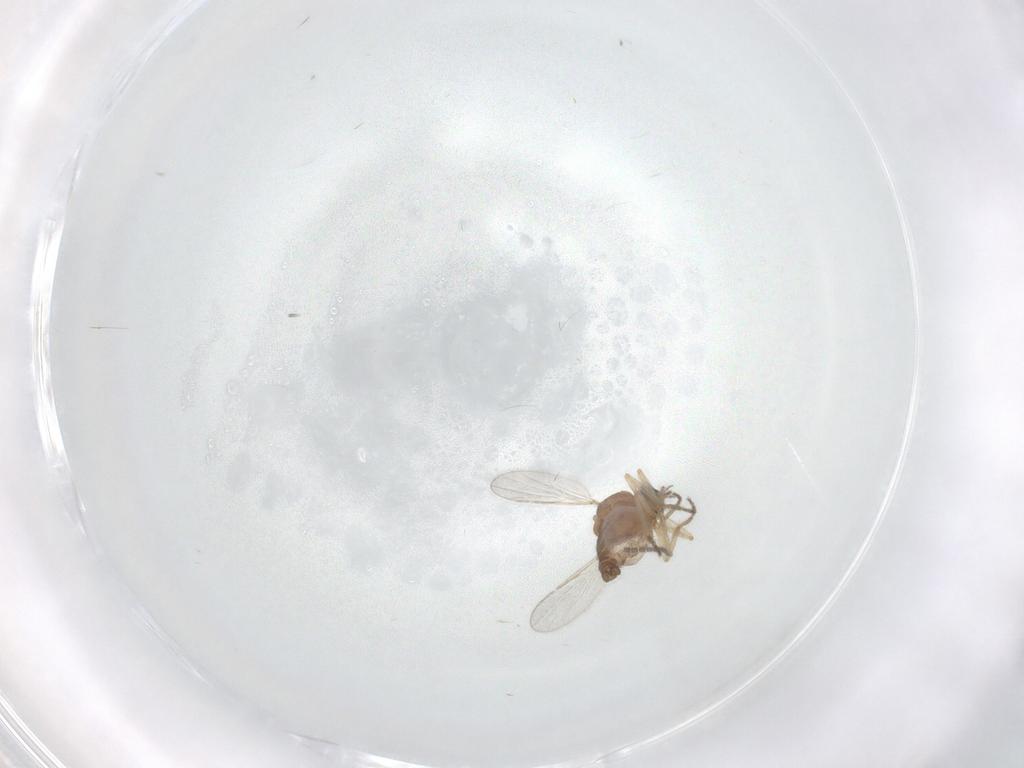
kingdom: Animalia
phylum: Arthropoda
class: Insecta
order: Diptera
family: Ceratopogonidae
